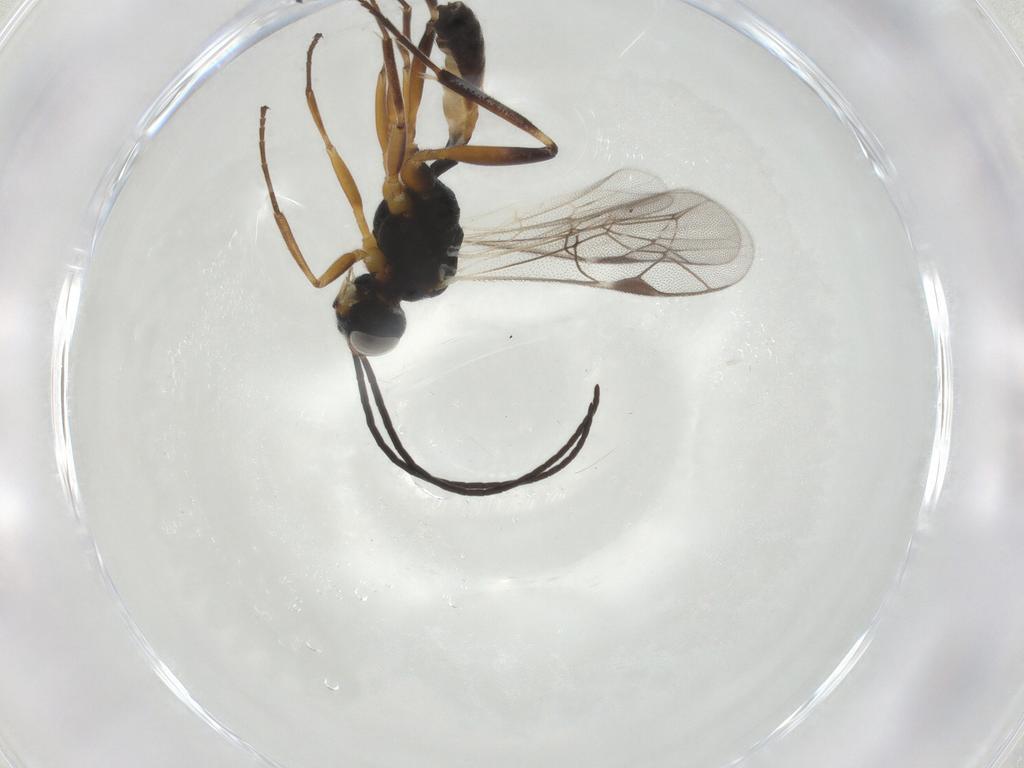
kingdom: Animalia
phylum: Arthropoda
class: Insecta
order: Hymenoptera
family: Ichneumonidae
